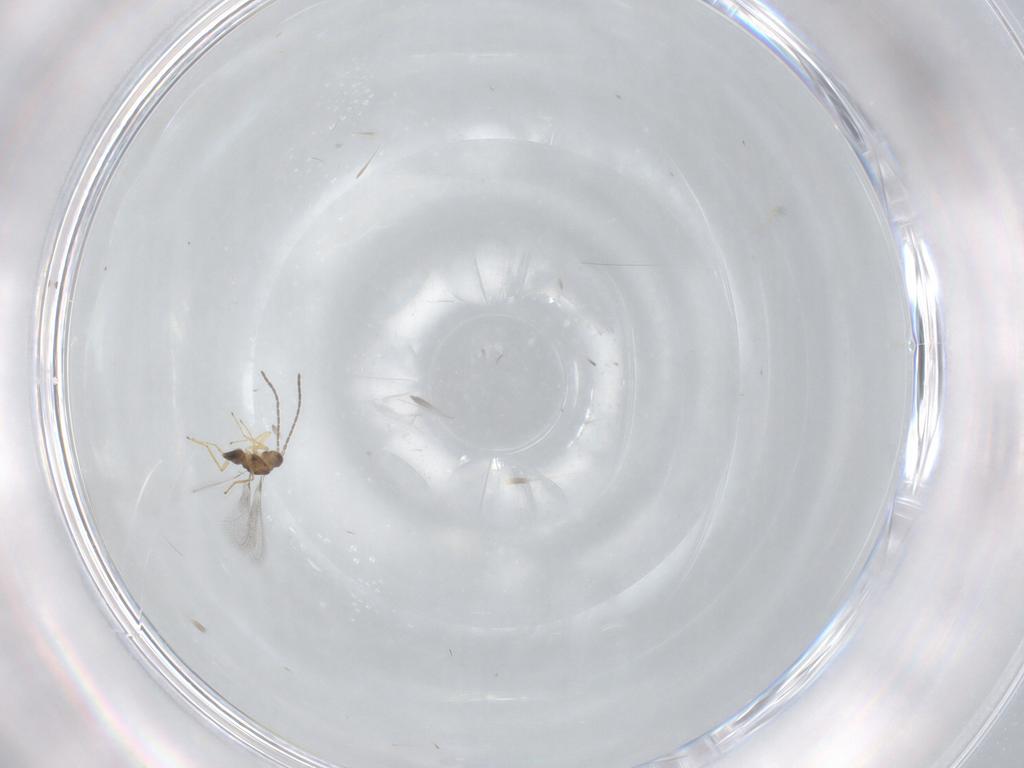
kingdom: Animalia
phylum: Arthropoda
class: Insecta
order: Hymenoptera
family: Mymaridae
